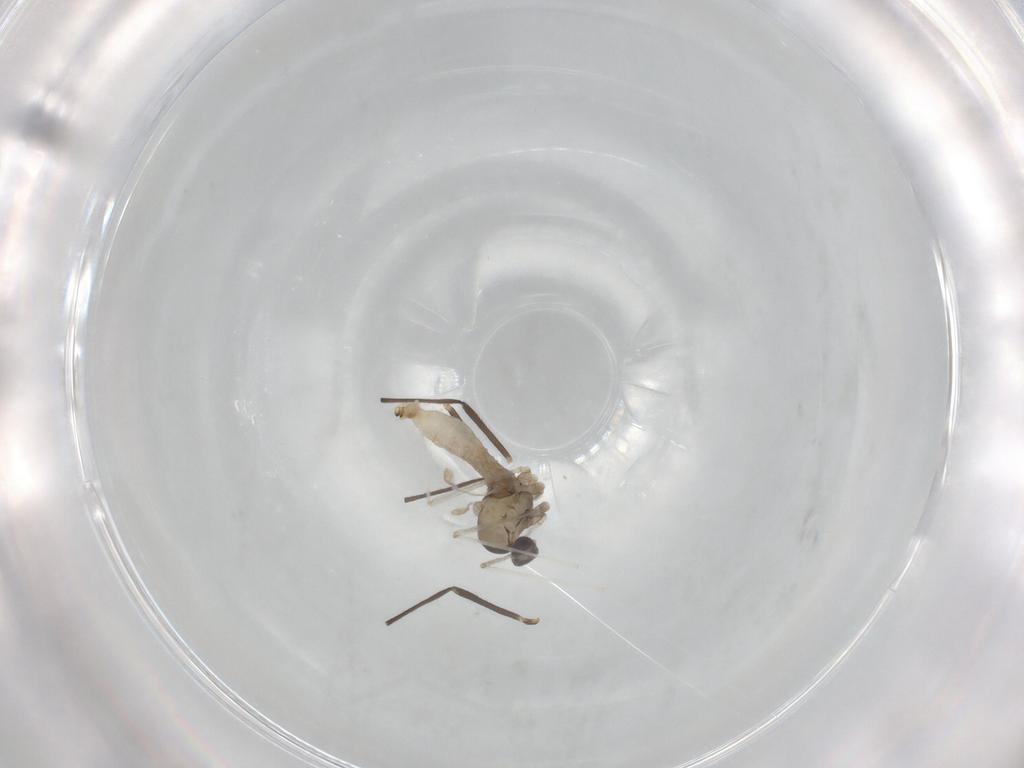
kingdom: Animalia
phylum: Arthropoda
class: Insecta
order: Diptera
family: Cecidomyiidae
